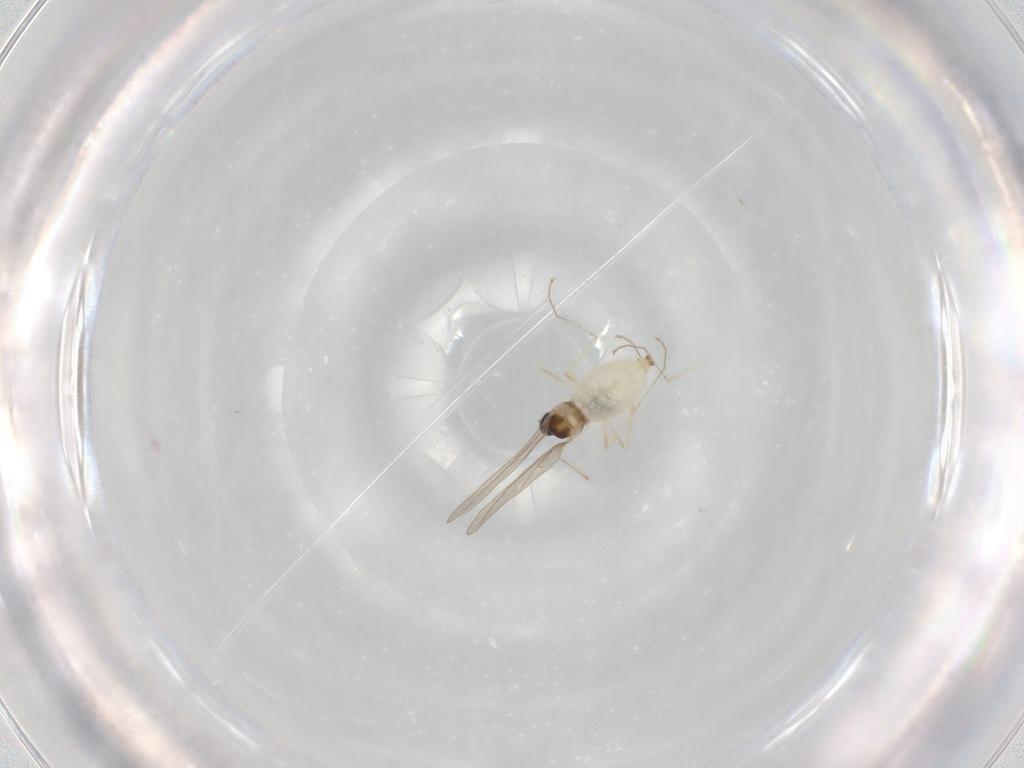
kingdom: Animalia
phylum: Arthropoda
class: Insecta
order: Diptera
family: Cecidomyiidae
